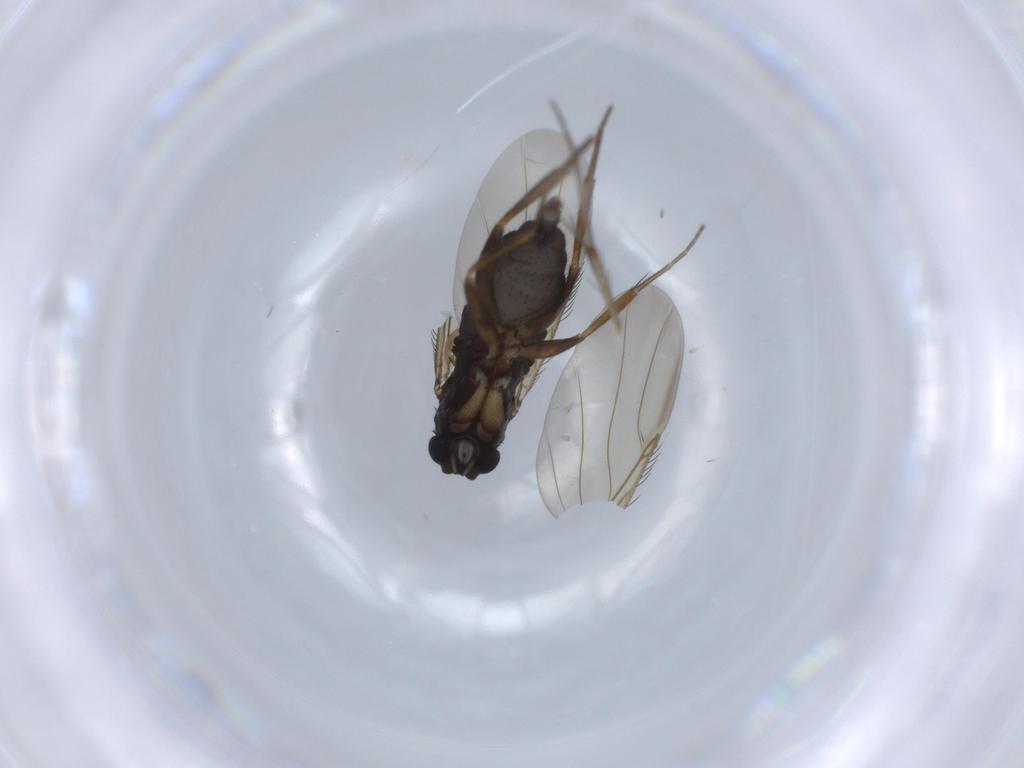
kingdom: Animalia
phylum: Arthropoda
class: Insecta
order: Diptera
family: Phoridae
